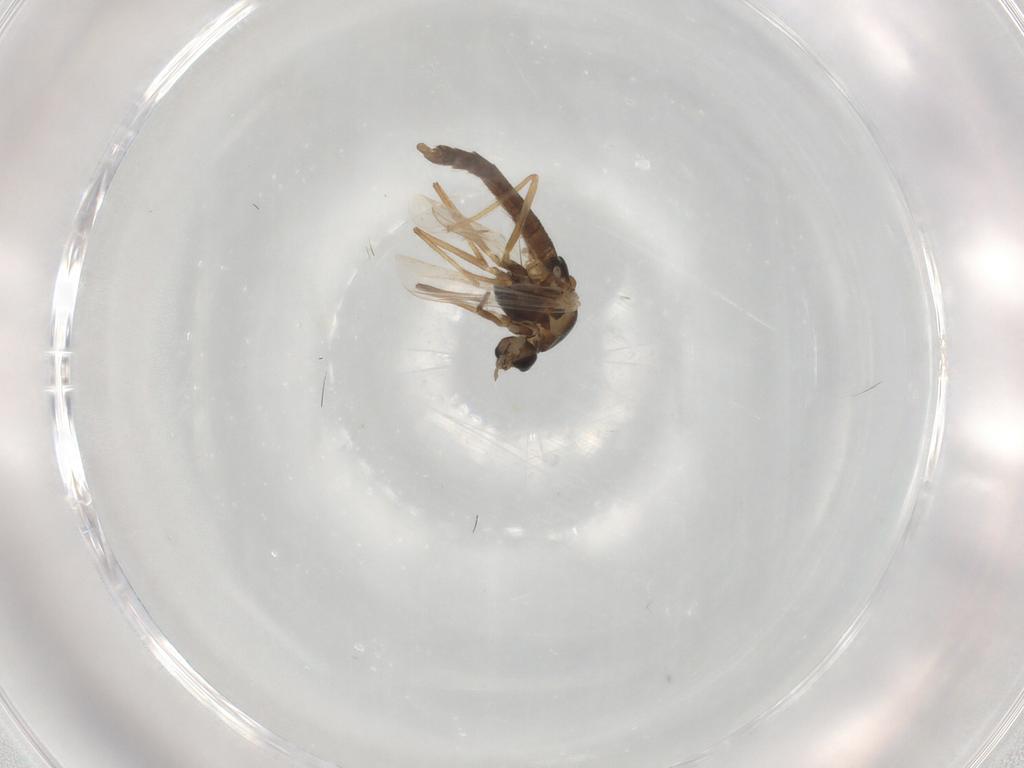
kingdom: Animalia
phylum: Arthropoda
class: Insecta
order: Diptera
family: Chironomidae
